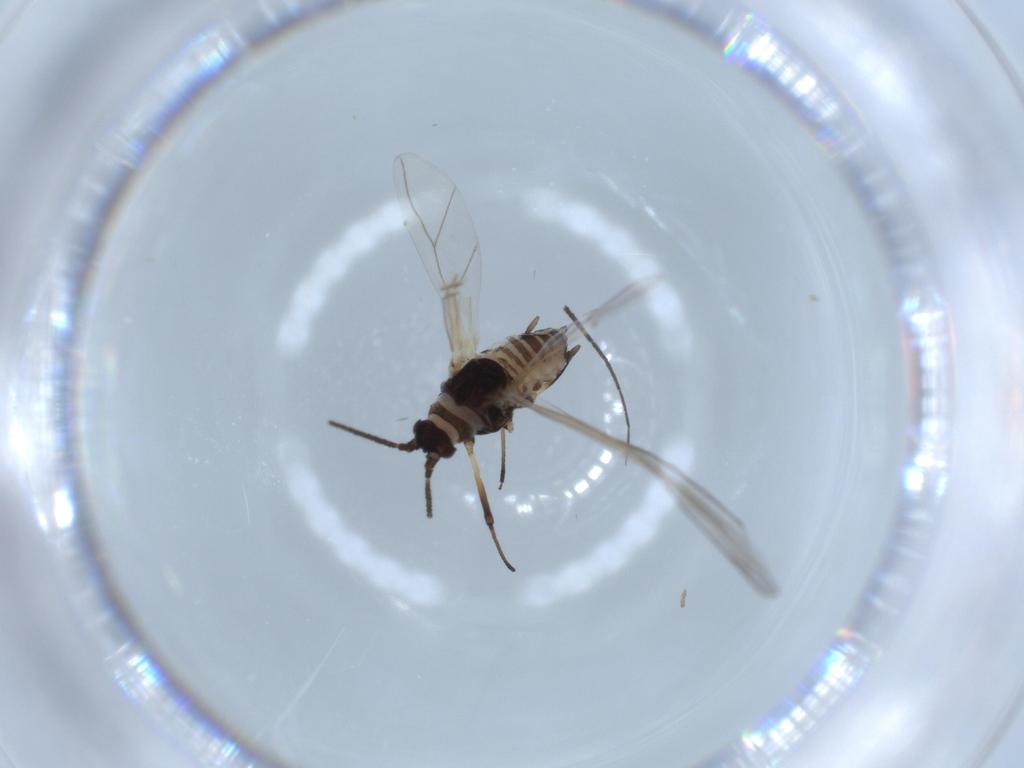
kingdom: Animalia
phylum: Arthropoda
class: Insecta
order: Hemiptera
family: Aphididae
